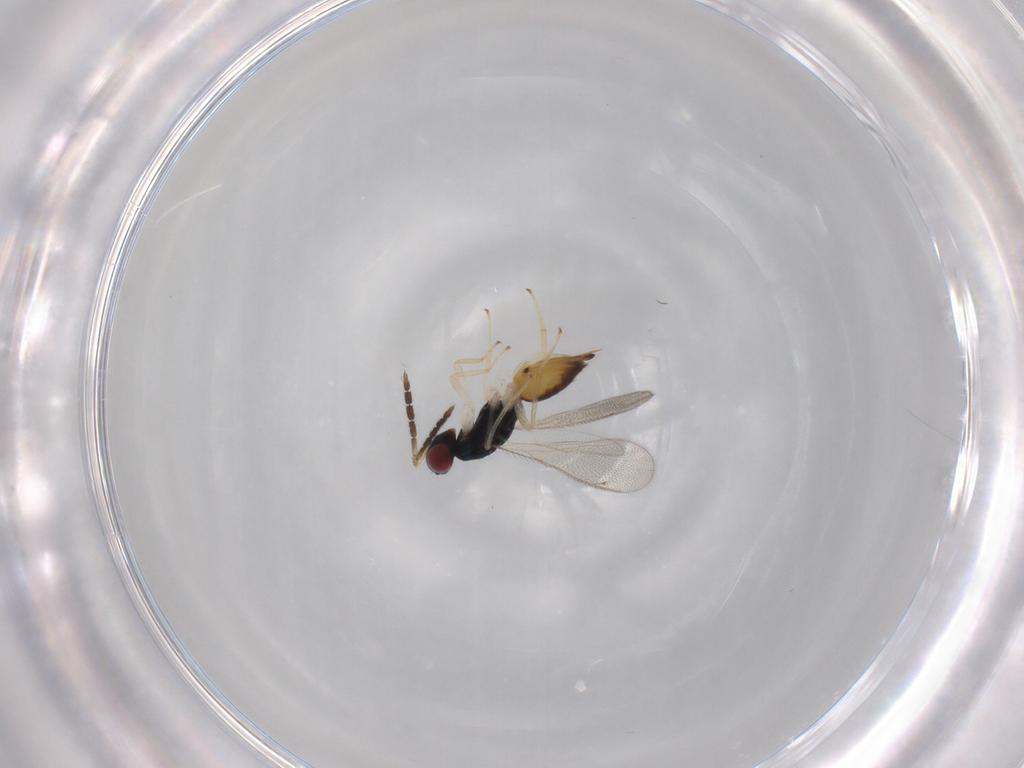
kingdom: Animalia
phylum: Arthropoda
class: Insecta
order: Hymenoptera
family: Eulophidae
